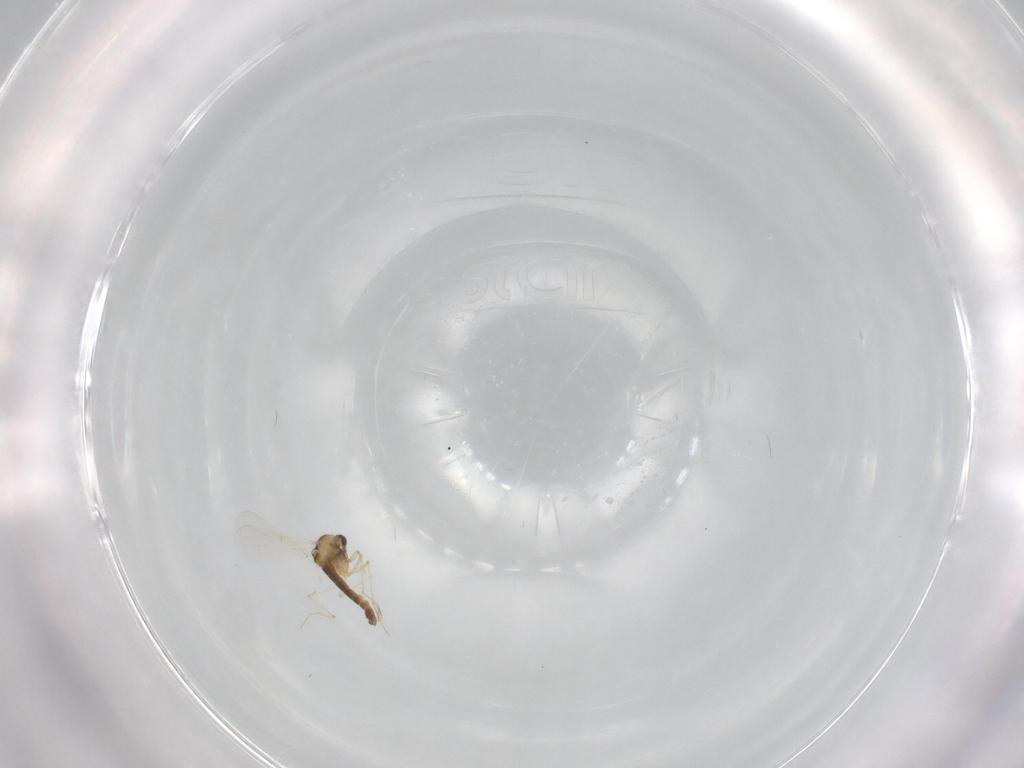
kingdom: Animalia
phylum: Arthropoda
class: Insecta
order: Diptera
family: Chironomidae
